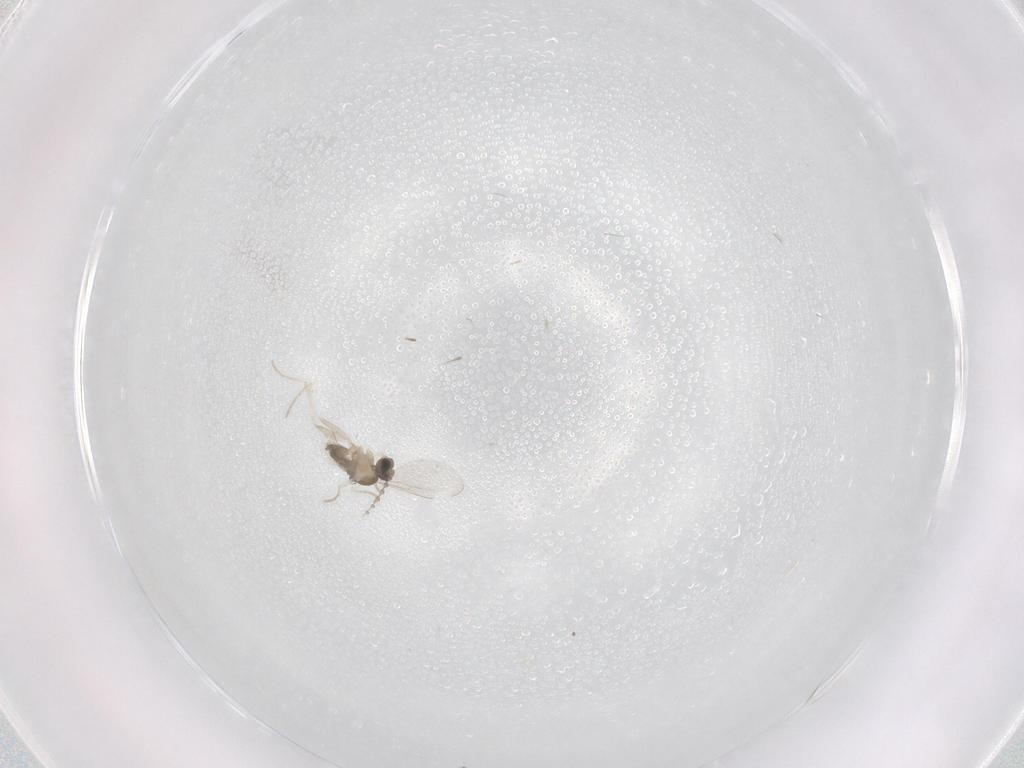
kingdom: Animalia
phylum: Arthropoda
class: Insecta
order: Diptera
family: Cecidomyiidae
